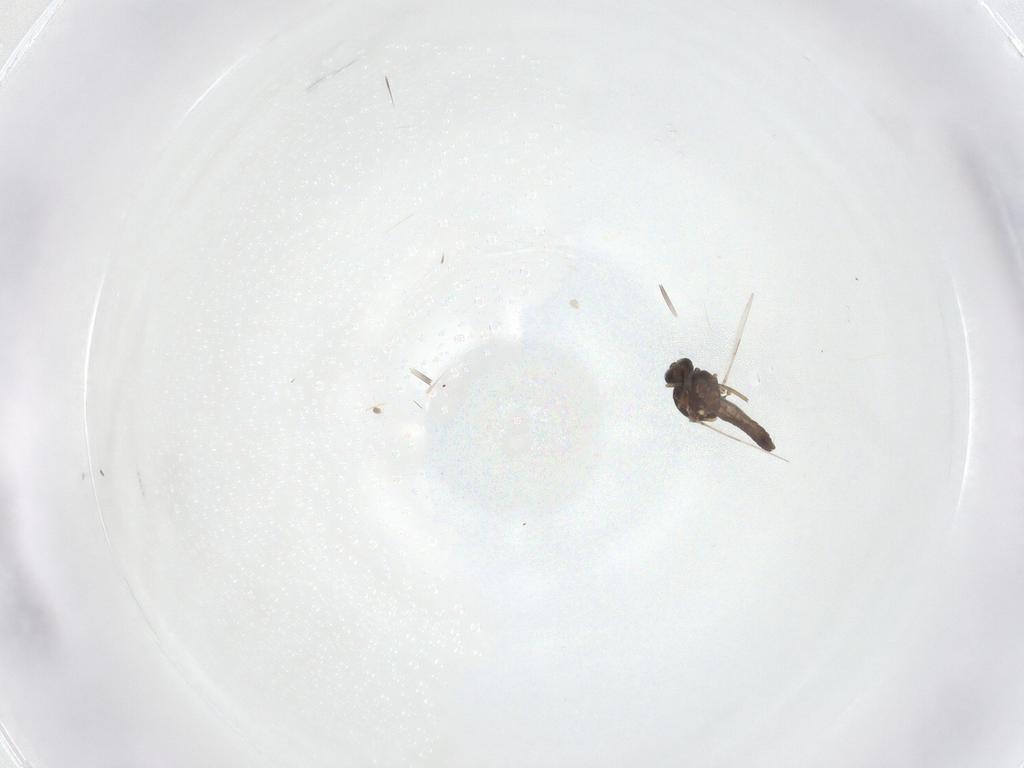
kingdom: Animalia
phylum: Arthropoda
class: Insecta
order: Diptera
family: Ceratopogonidae
